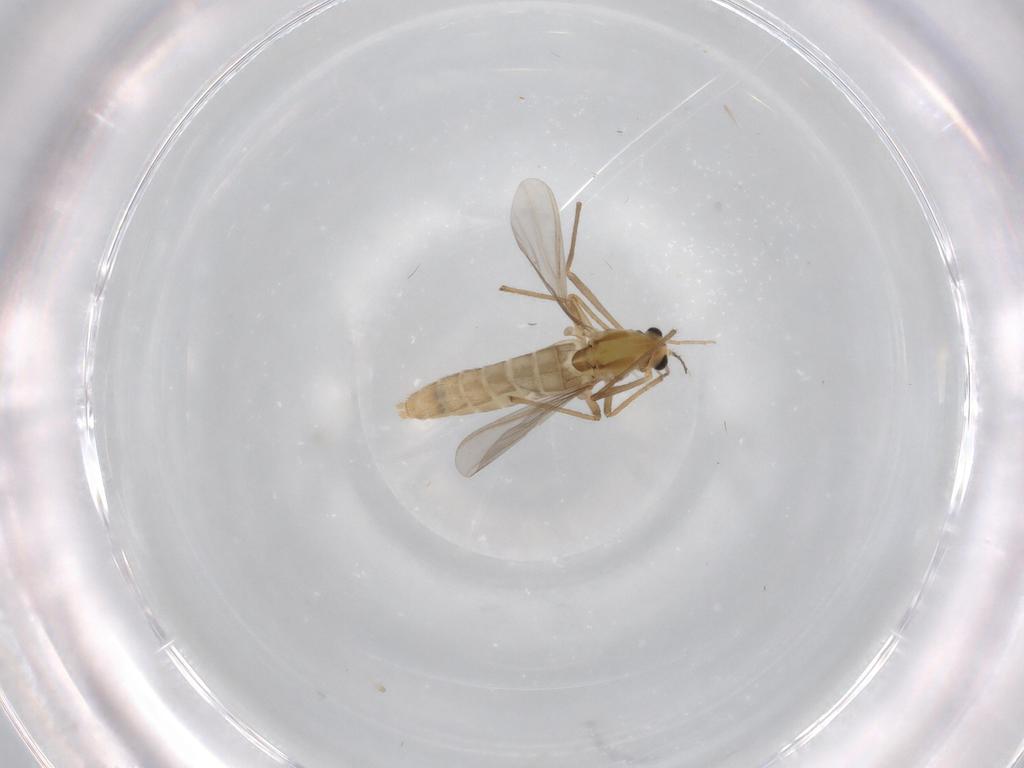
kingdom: Animalia
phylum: Arthropoda
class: Insecta
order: Diptera
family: Chironomidae
